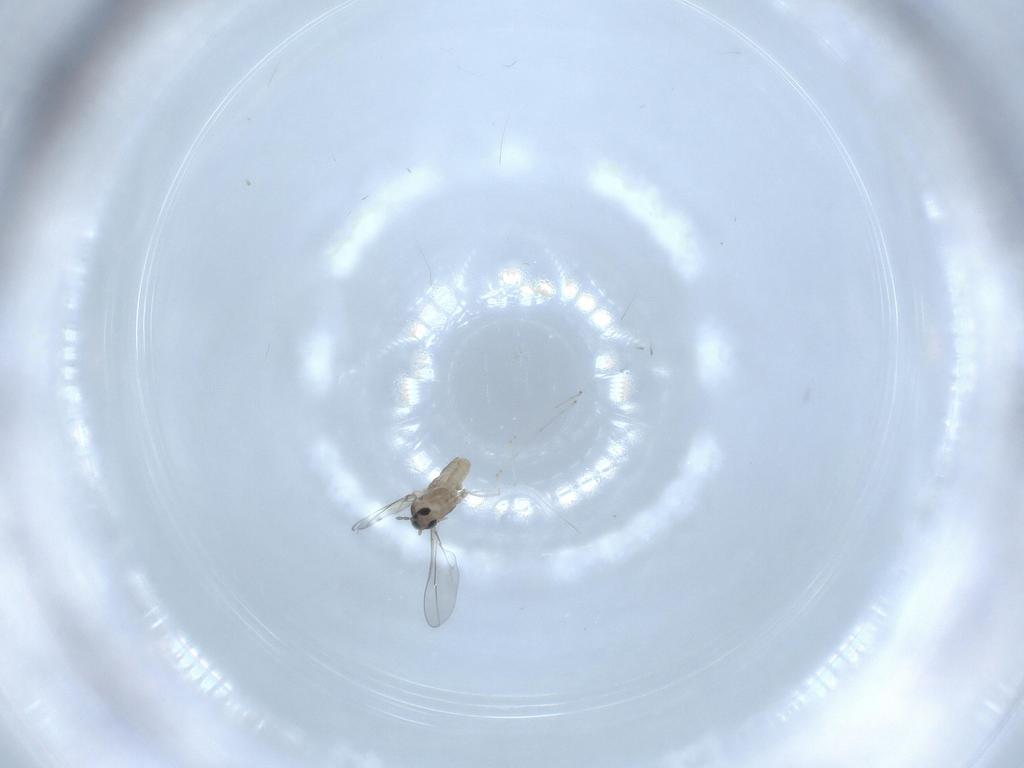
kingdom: Animalia
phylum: Arthropoda
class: Insecta
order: Diptera
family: Cecidomyiidae
